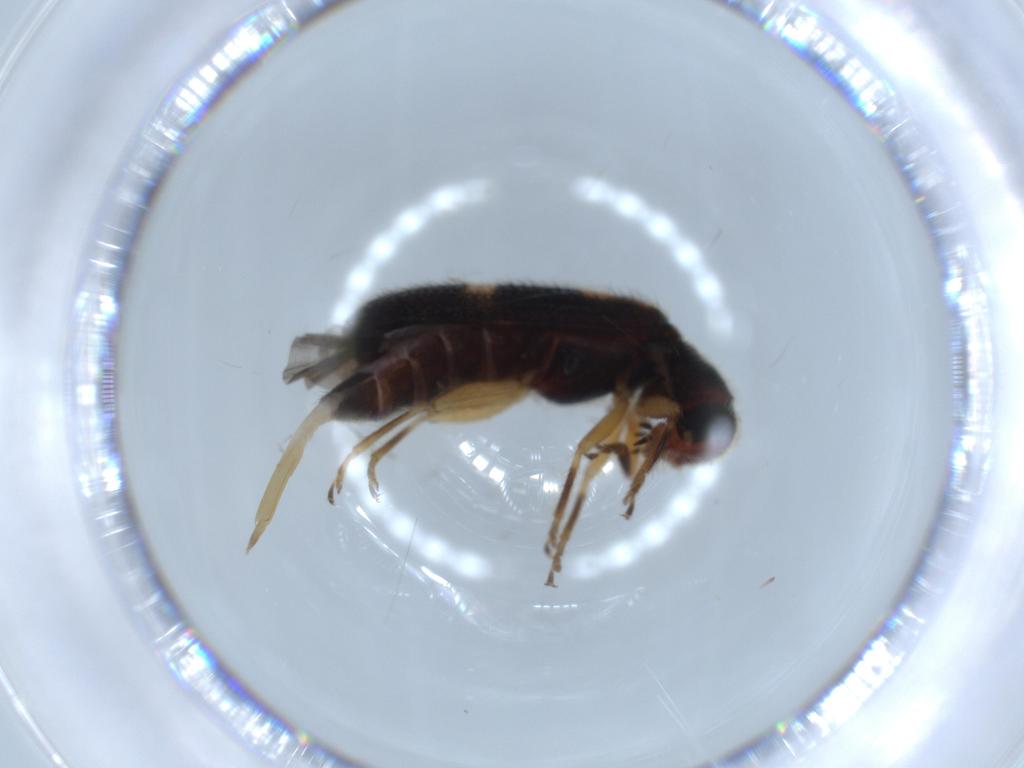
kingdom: Animalia
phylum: Arthropoda
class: Insecta
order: Coleoptera
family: Cleridae
